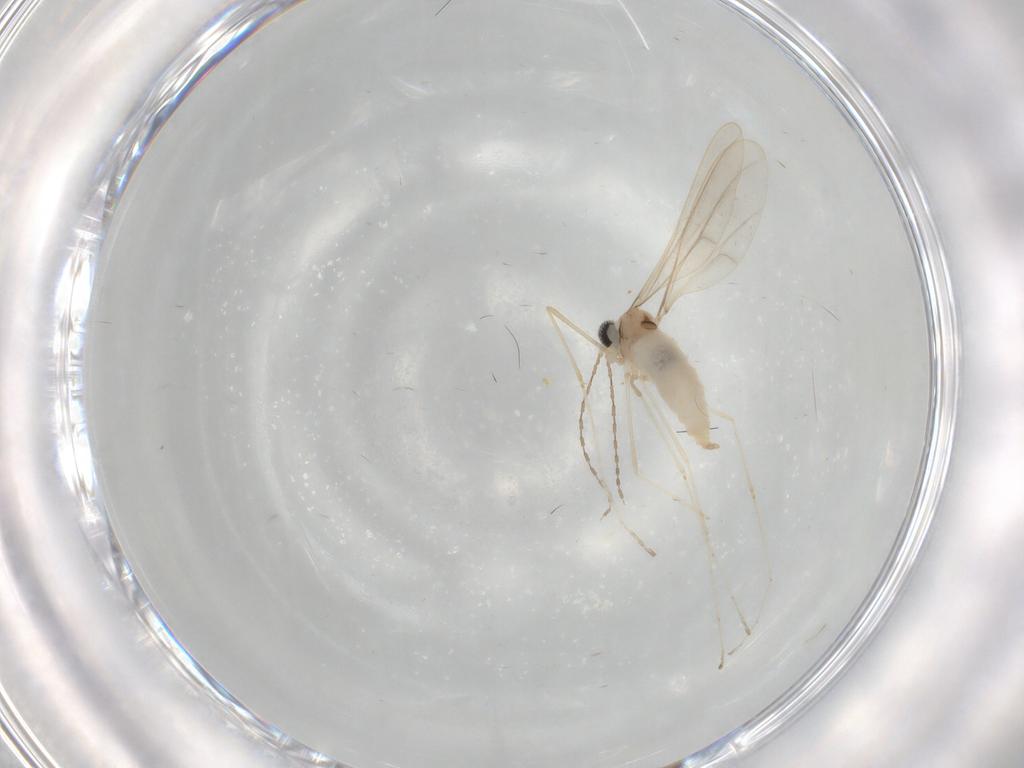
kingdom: Animalia
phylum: Arthropoda
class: Insecta
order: Diptera
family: Cecidomyiidae
